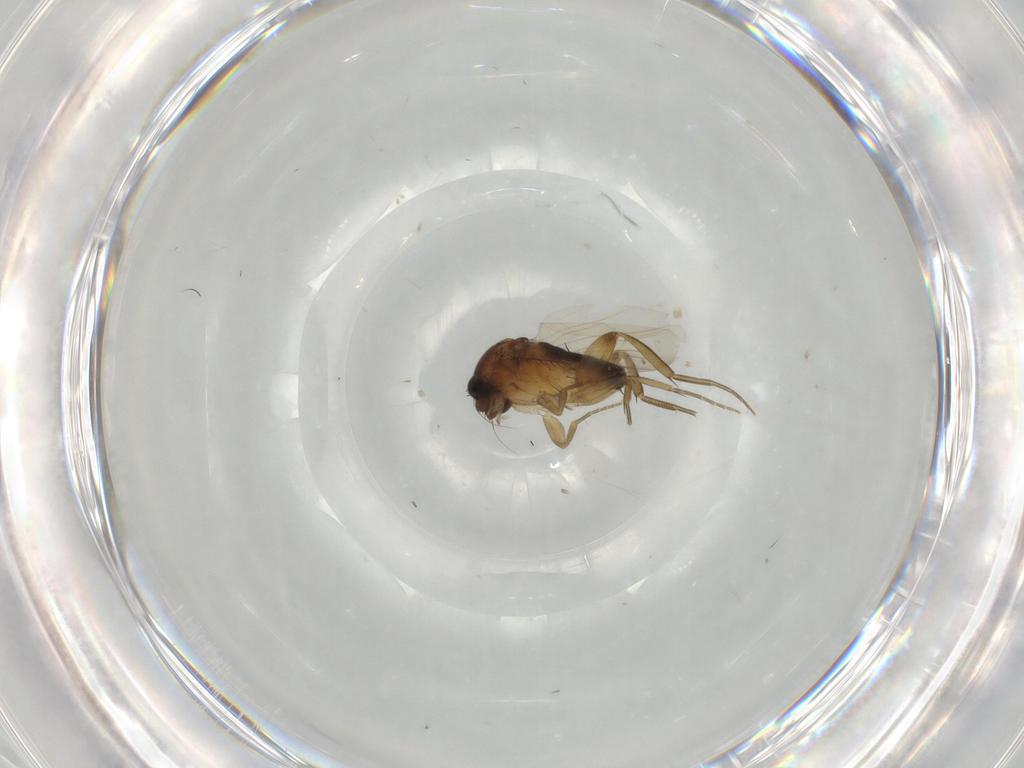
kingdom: Animalia
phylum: Arthropoda
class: Insecta
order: Diptera
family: Phoridae
